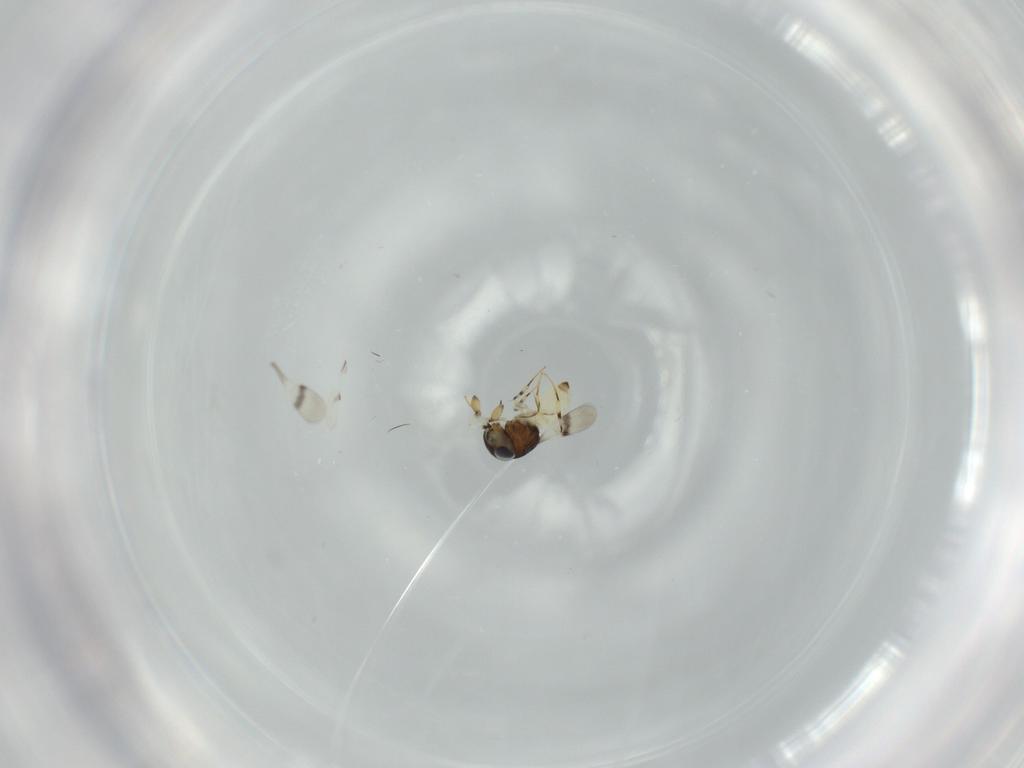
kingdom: Animalia
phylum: Arthropoda
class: Insecta
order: Hymenoptera
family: Scelionidae
